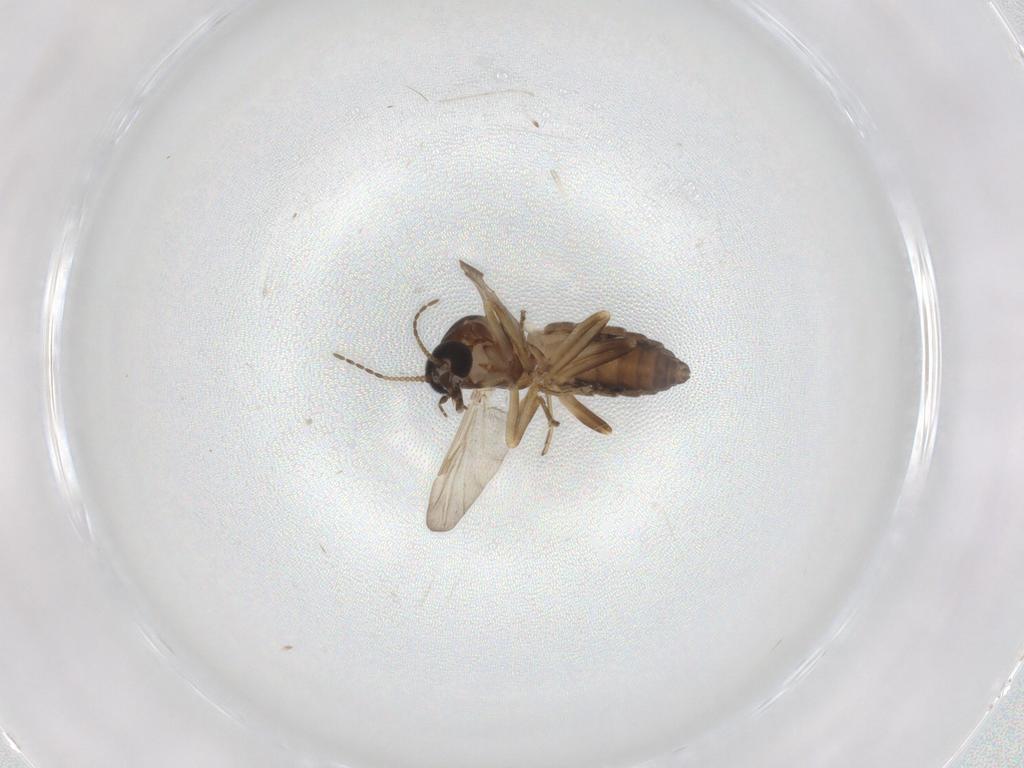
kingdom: Animalia
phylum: Arthropoda
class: Insecta
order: Diptera
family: Ceratopogonidae
